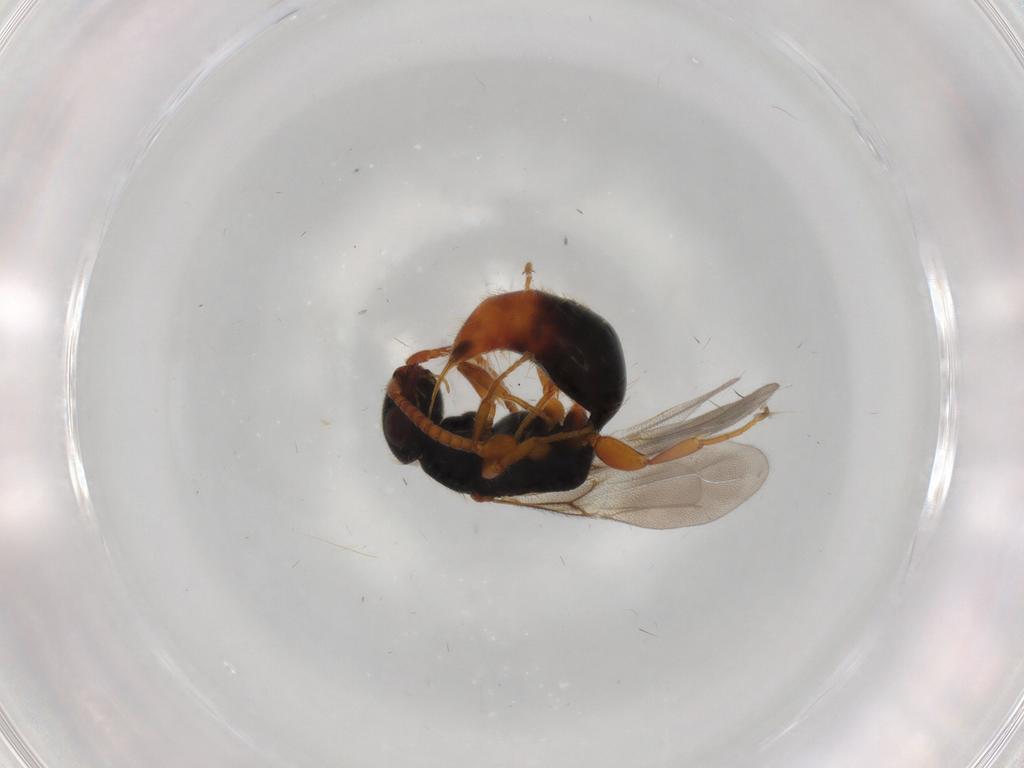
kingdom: Animalia
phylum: Arthropoda
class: Insecta
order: Hymenoptera
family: Bethylidae
